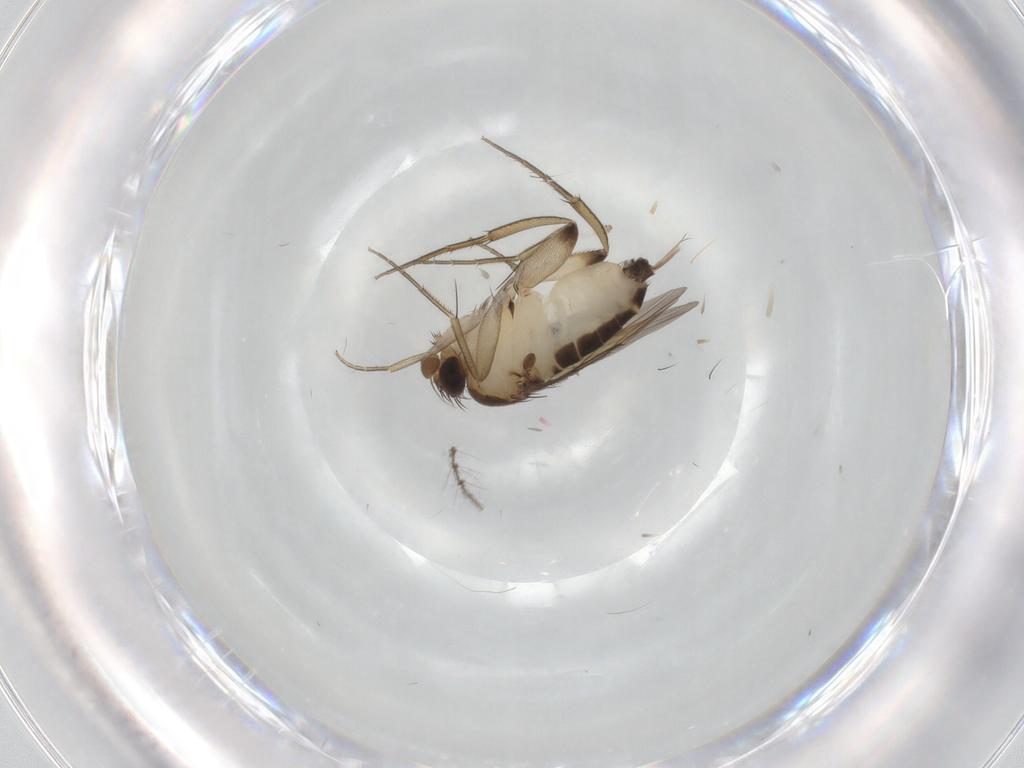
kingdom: Animalia
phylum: Arthropoda
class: Insecta
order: Diptera
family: Phoridae
